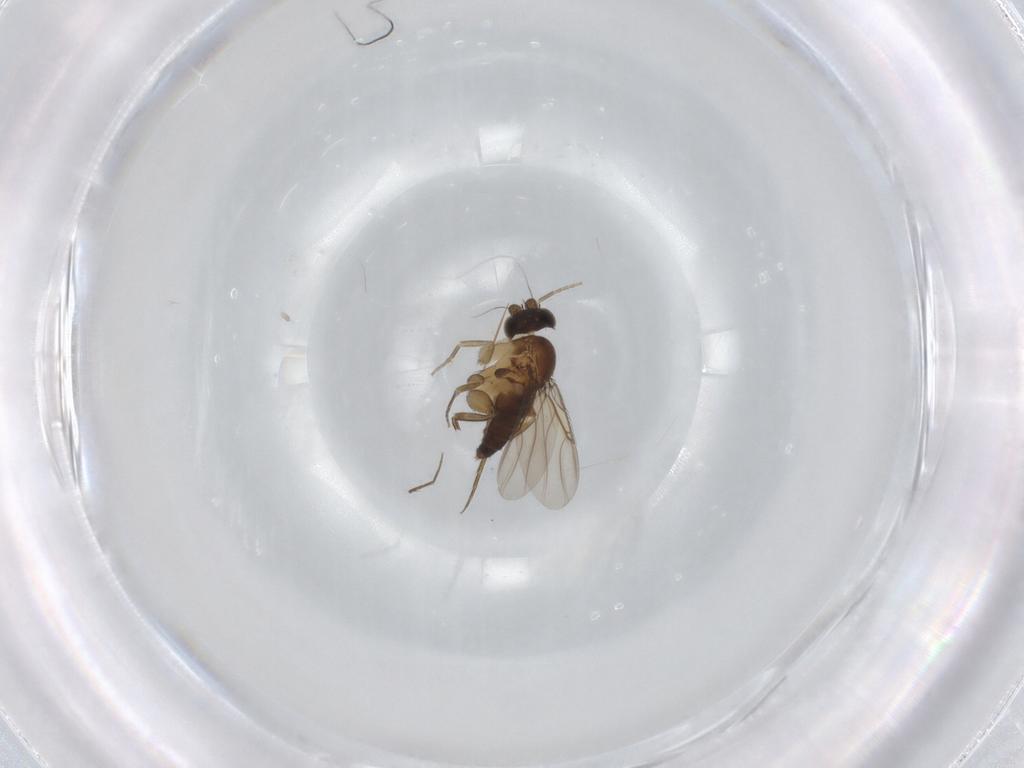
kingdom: Animalia
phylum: Arthropoda
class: Insecta
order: Diptera
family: Phoridae
